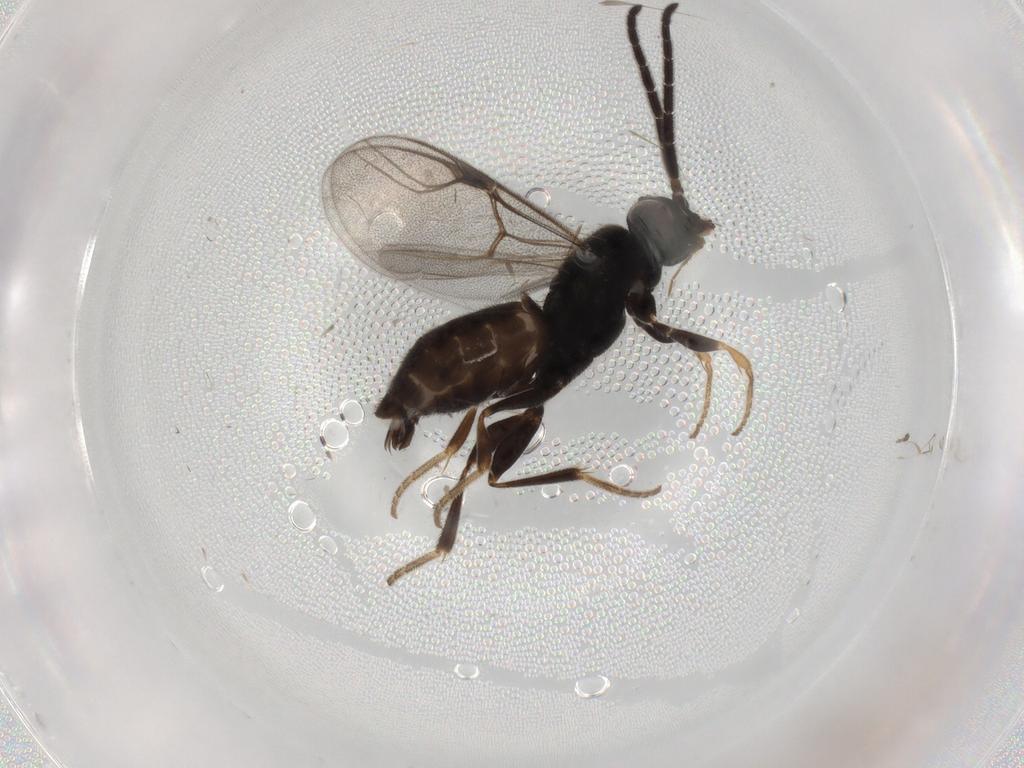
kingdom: Animalia
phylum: Arthropoda
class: Insecta
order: Hymenoptera
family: Dryinidae
